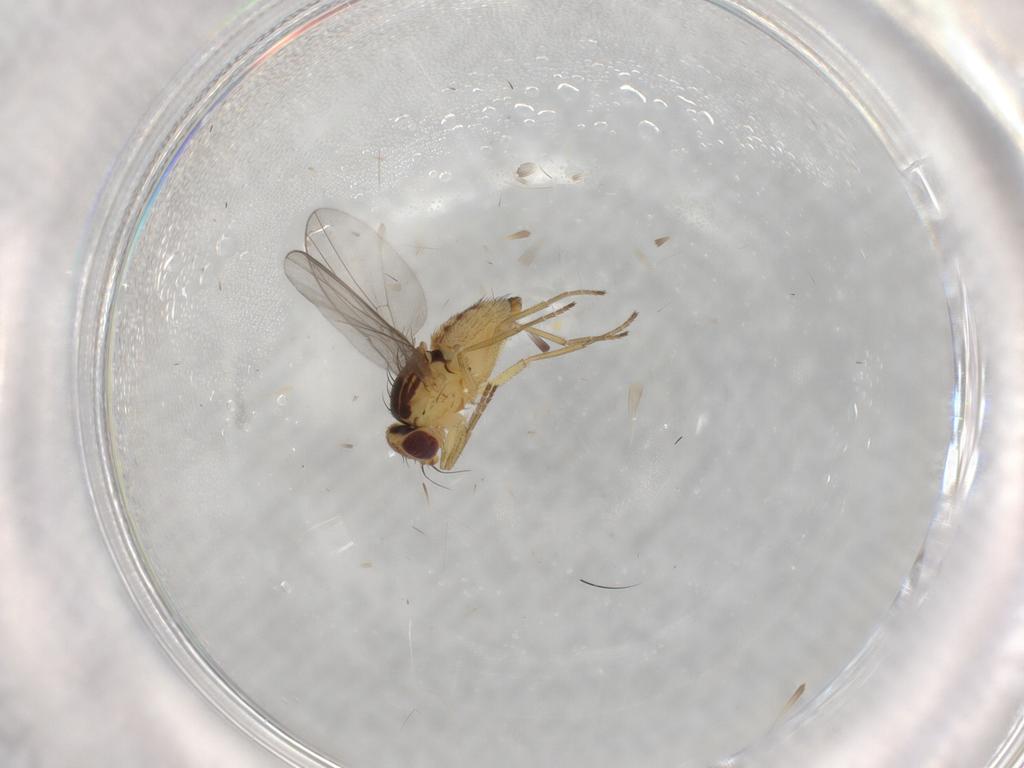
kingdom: Animalia
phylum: Arthropoda
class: Insecta
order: Diptera
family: Agromyzidae
